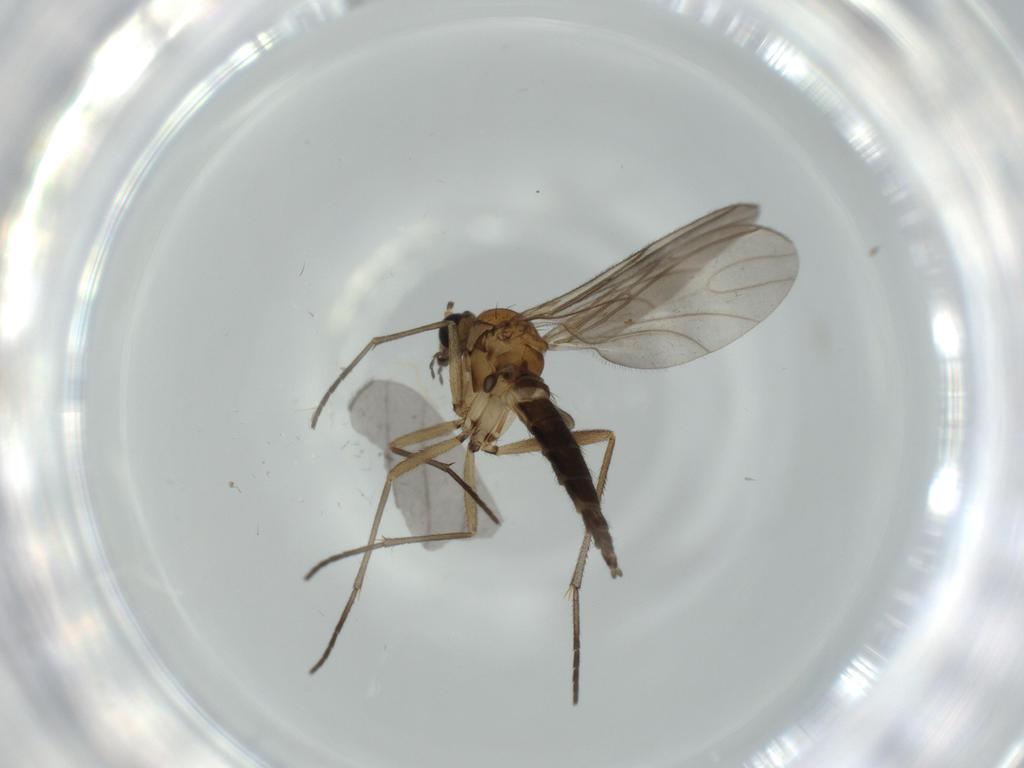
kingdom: Animalia
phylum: Arthropoda
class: Insecta
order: Diptera
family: Sciaridae
